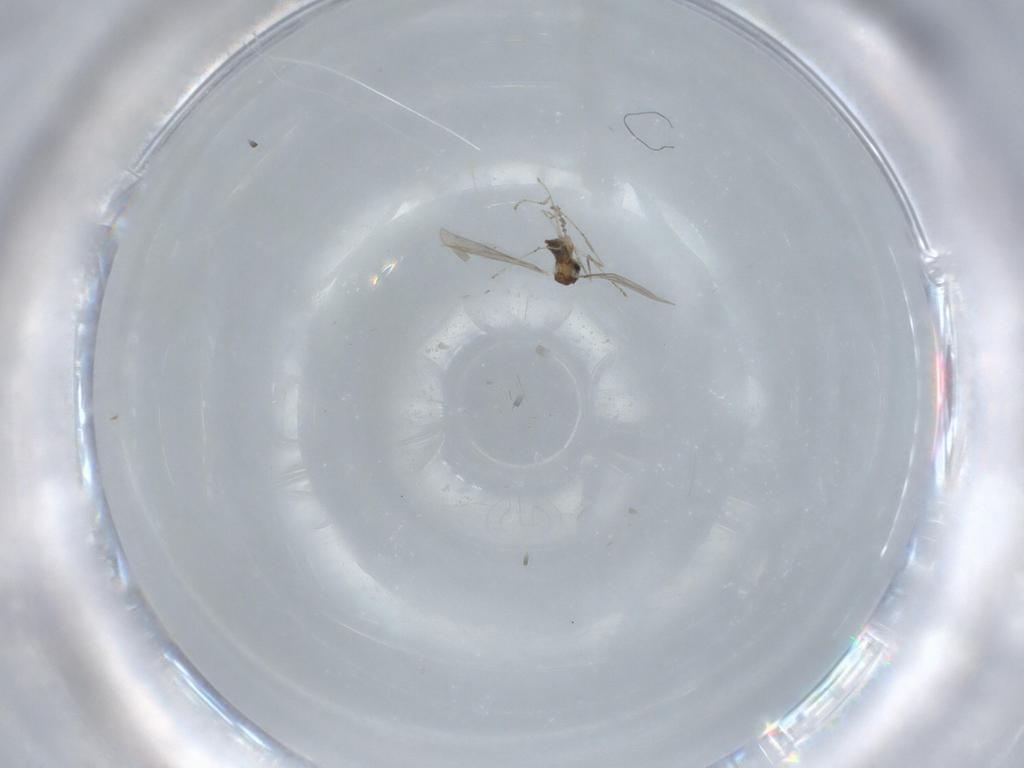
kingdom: Animalia
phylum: Arthropoda
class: Insecta
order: Diptera
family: Cecidomyiidae
